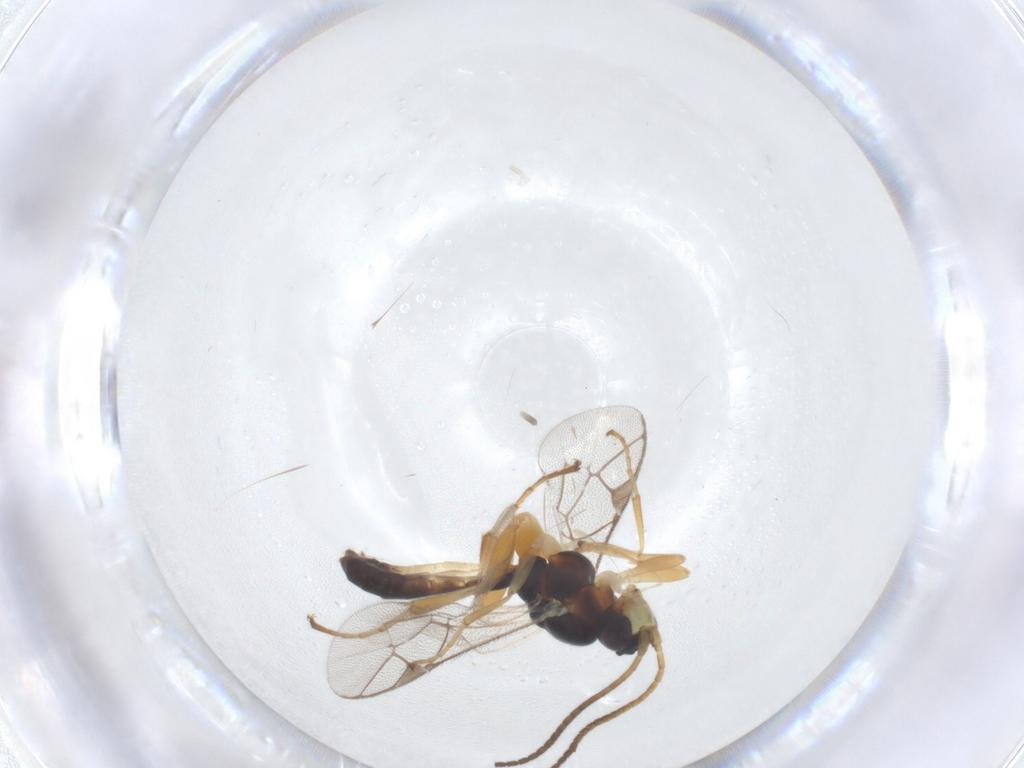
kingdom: Animalia
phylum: Arthropoda
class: Insecta
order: Hymenoptera
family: Ichneumonidae
